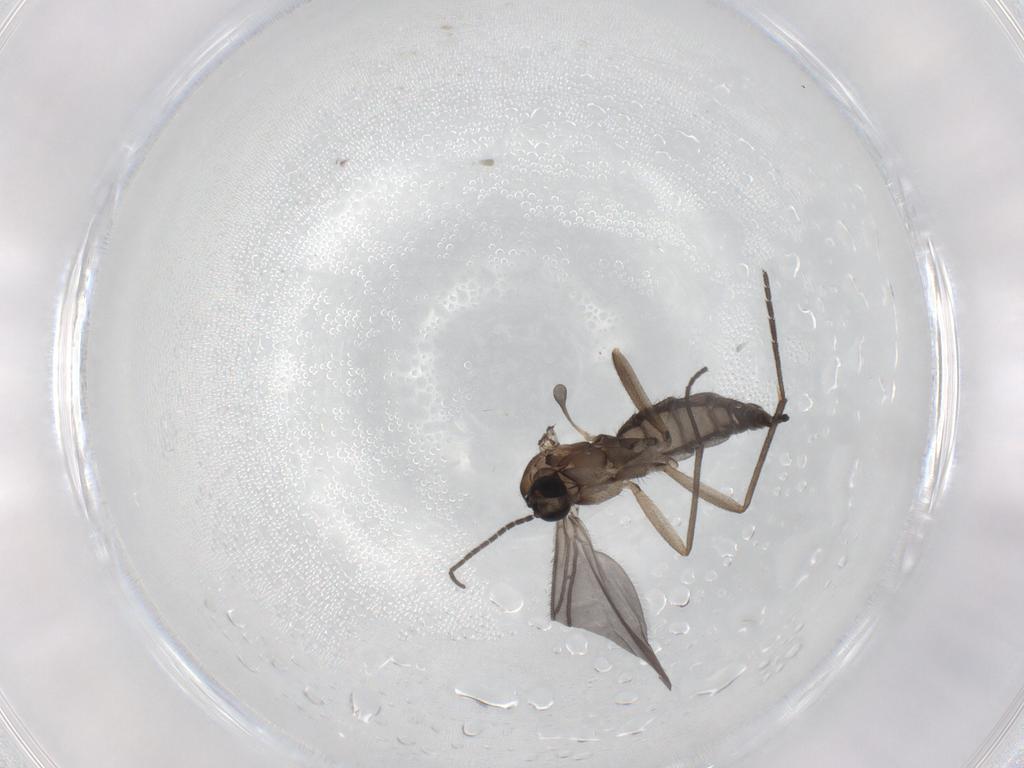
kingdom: Animalia
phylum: Arthropoda
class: Insecta
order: Diptera
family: Sciaridae
